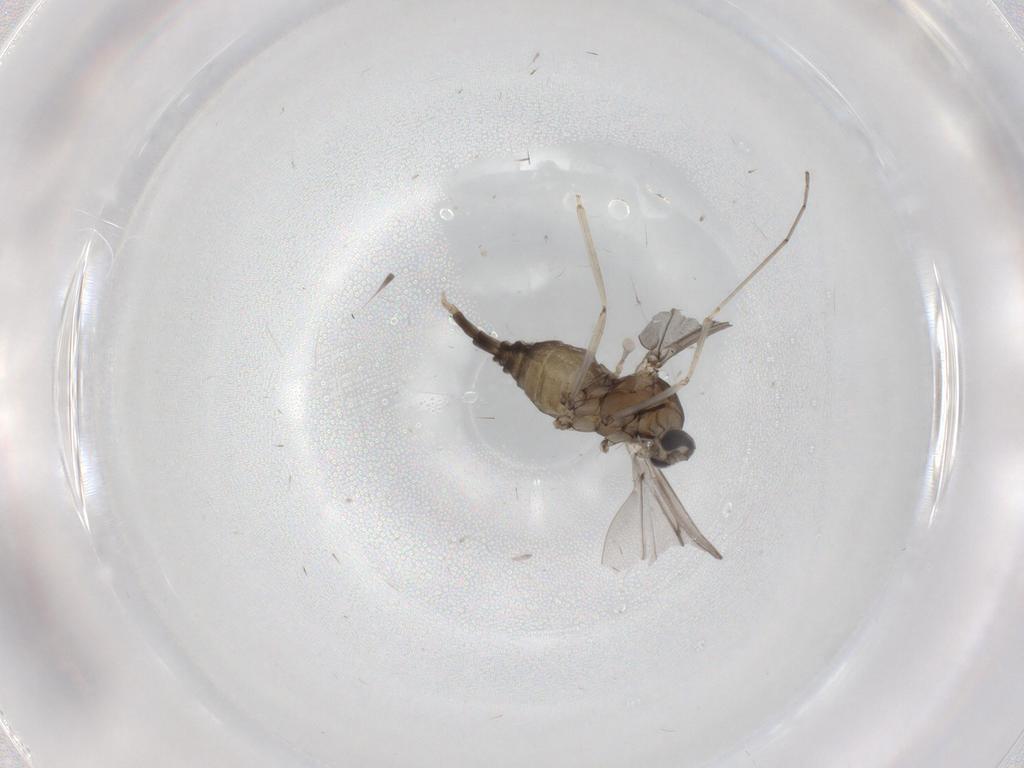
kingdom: Animalia
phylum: Arthropoda
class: Insecta
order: Diptera
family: Cecidomyiidae
